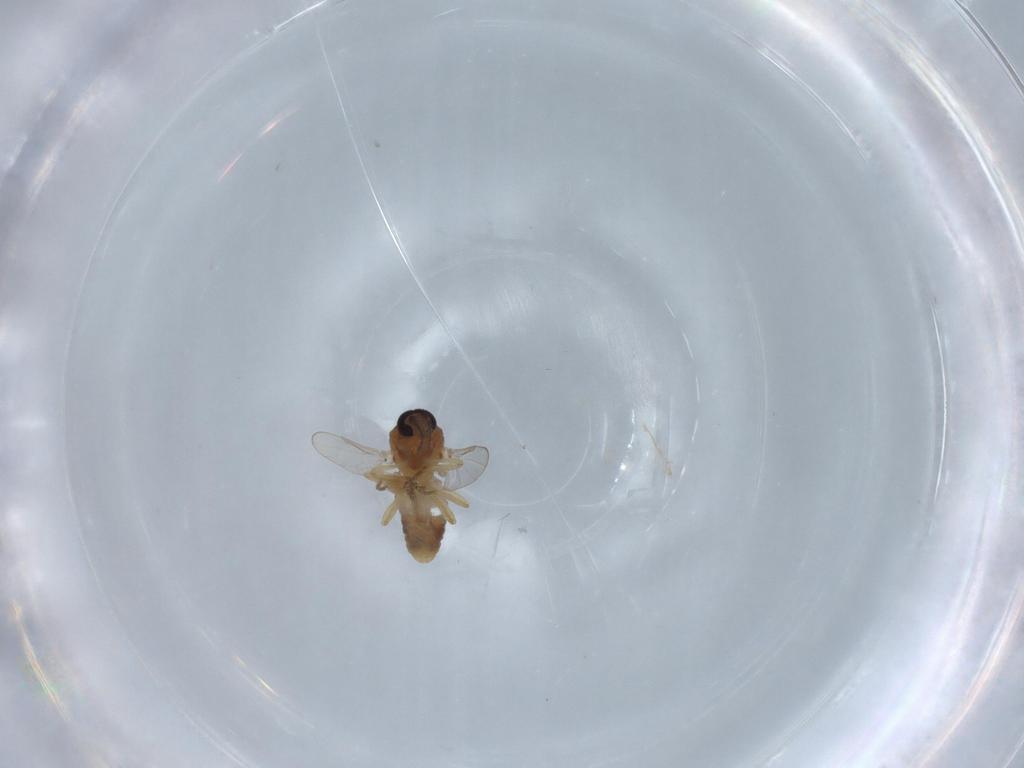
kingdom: Animalia
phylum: Arthropoda
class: Insecta
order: Diptera
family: Ceratopogonidae
